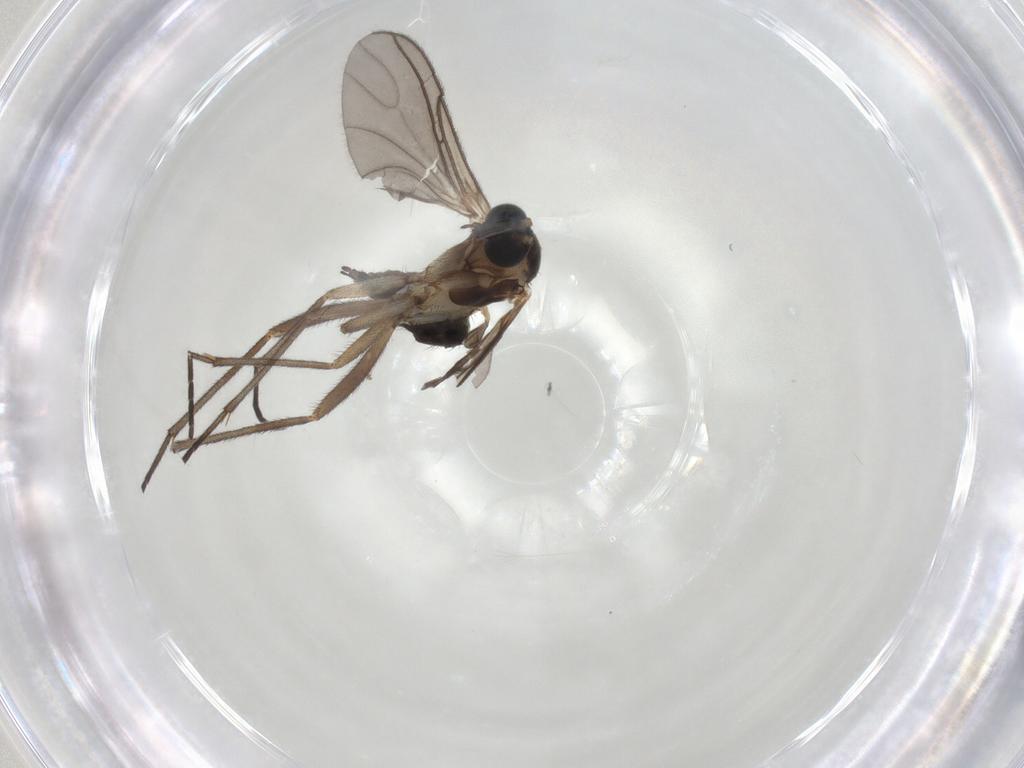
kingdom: Animalia
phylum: Arthropoda
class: Insecta
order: Diptera
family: Sciaridae
